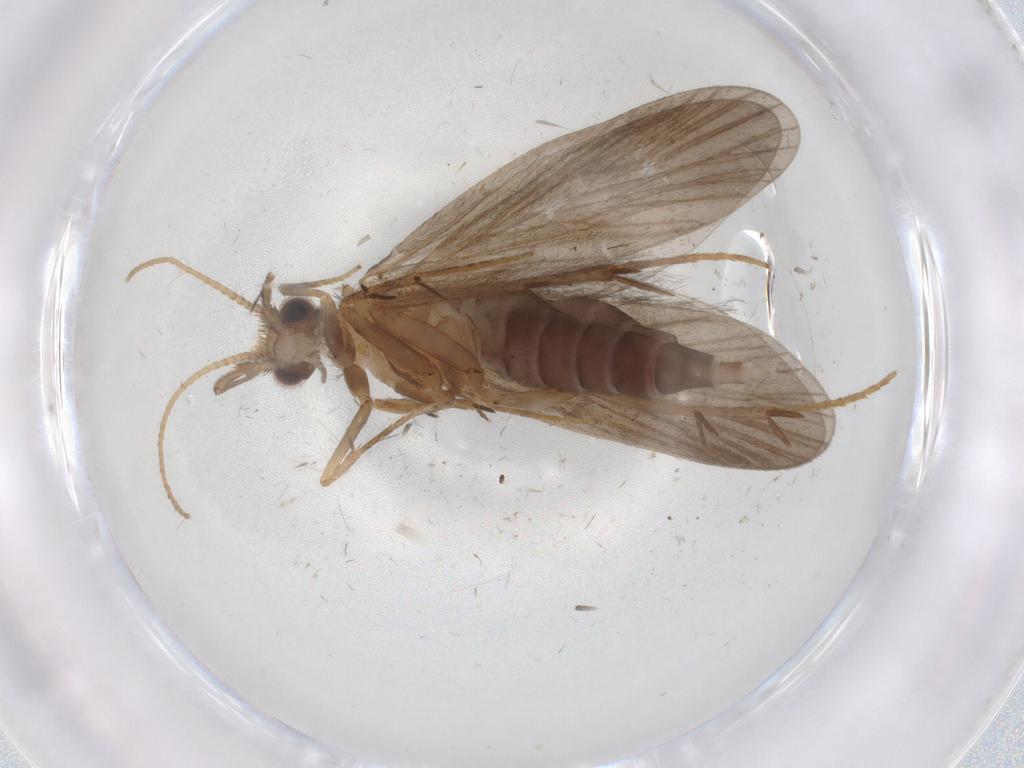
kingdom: Animalia
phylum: Arthropoda
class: Insecta
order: Trichoptera
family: Philopotamidae
